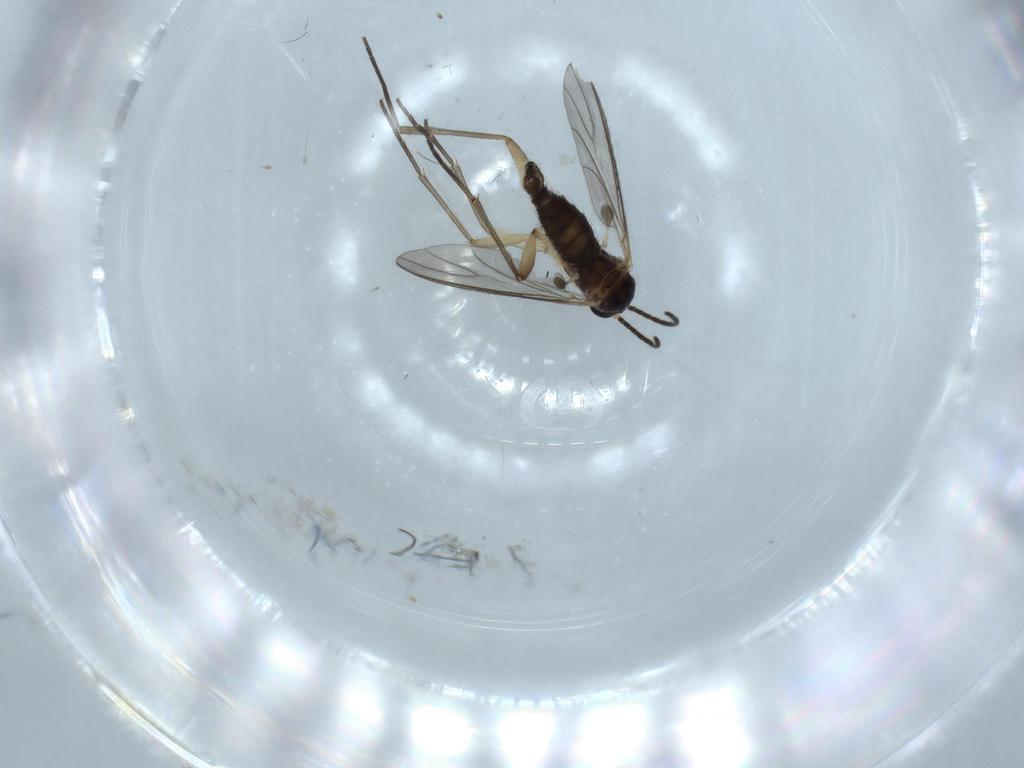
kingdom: Animalia
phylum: Arthropoda
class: Insecta
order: Diptera
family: Sciaridae
